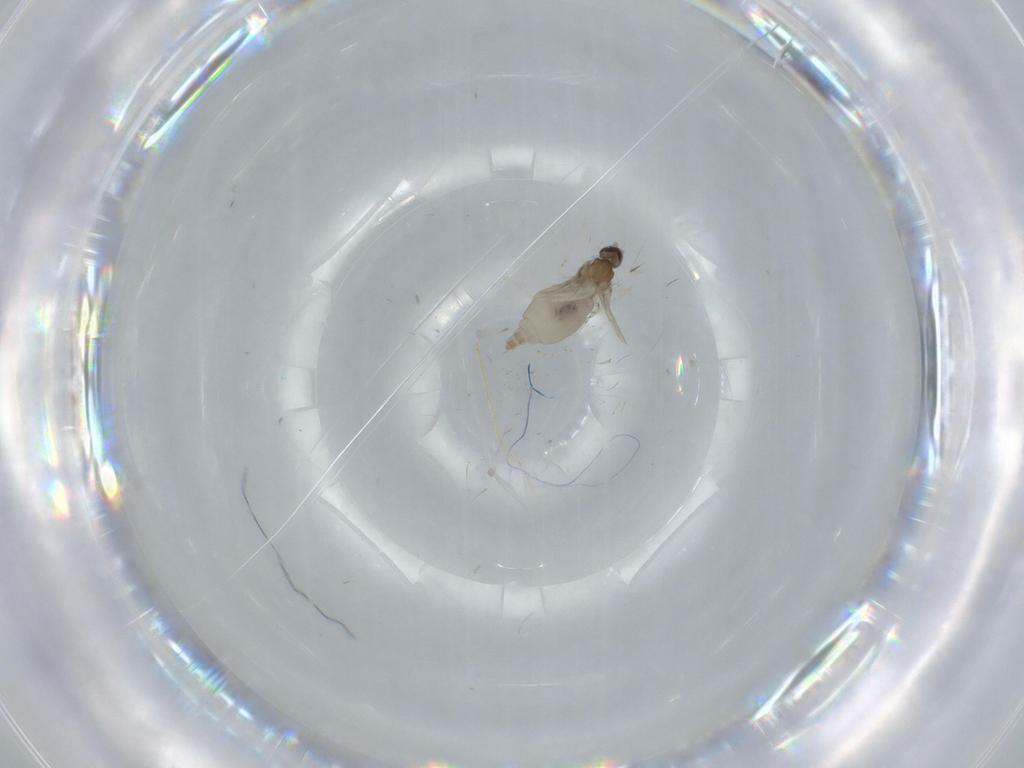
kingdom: Animalia
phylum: Arthropoda
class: Insecta
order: Diptera
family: Cecidomyiidae
